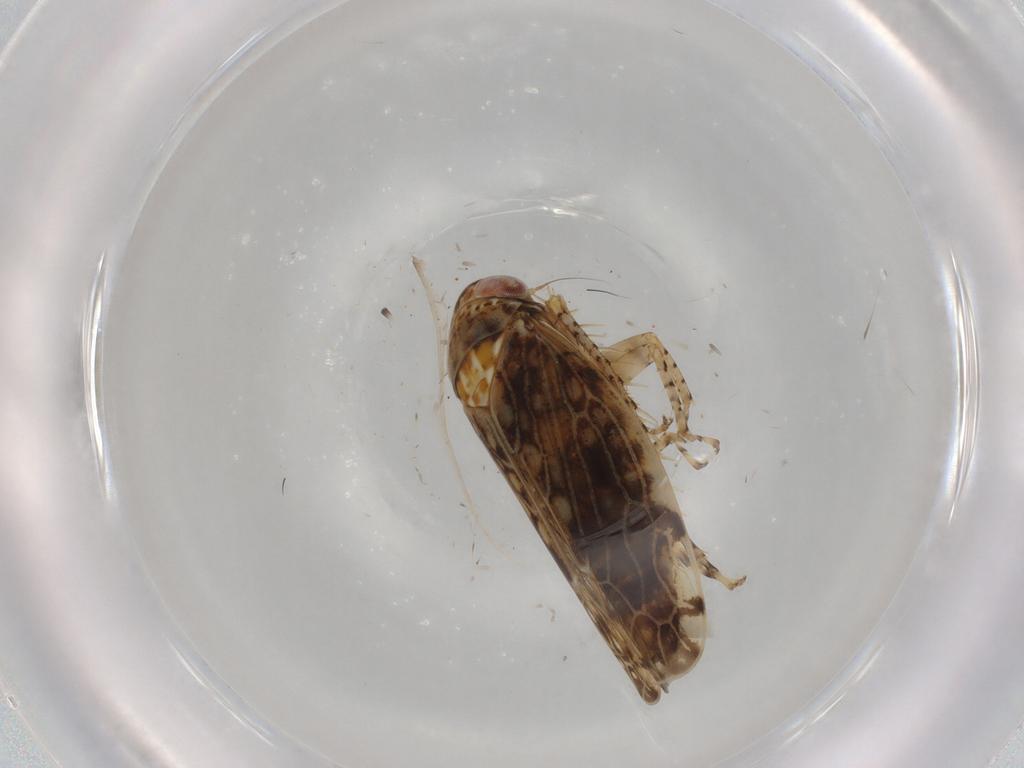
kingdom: Animalia
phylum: Arthropoda
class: Insecta
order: Hemiptera
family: Cicadellidae
